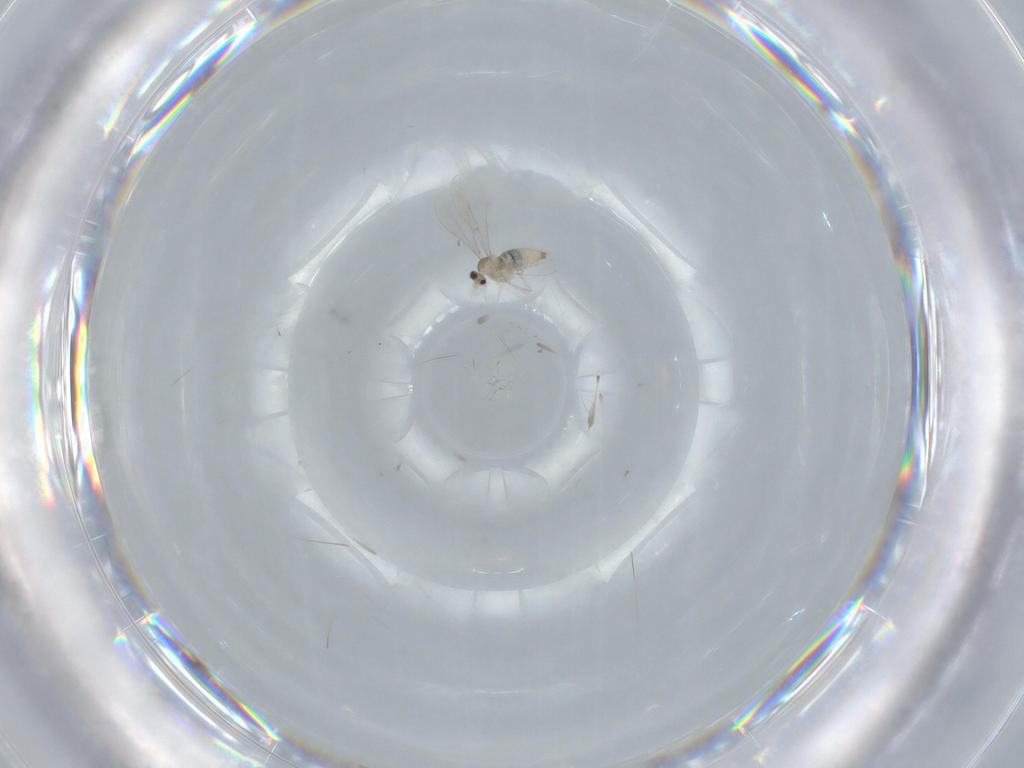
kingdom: Animalia
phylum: Arthropoda
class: Insecta
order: Diptera
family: Cecidomyiidae
